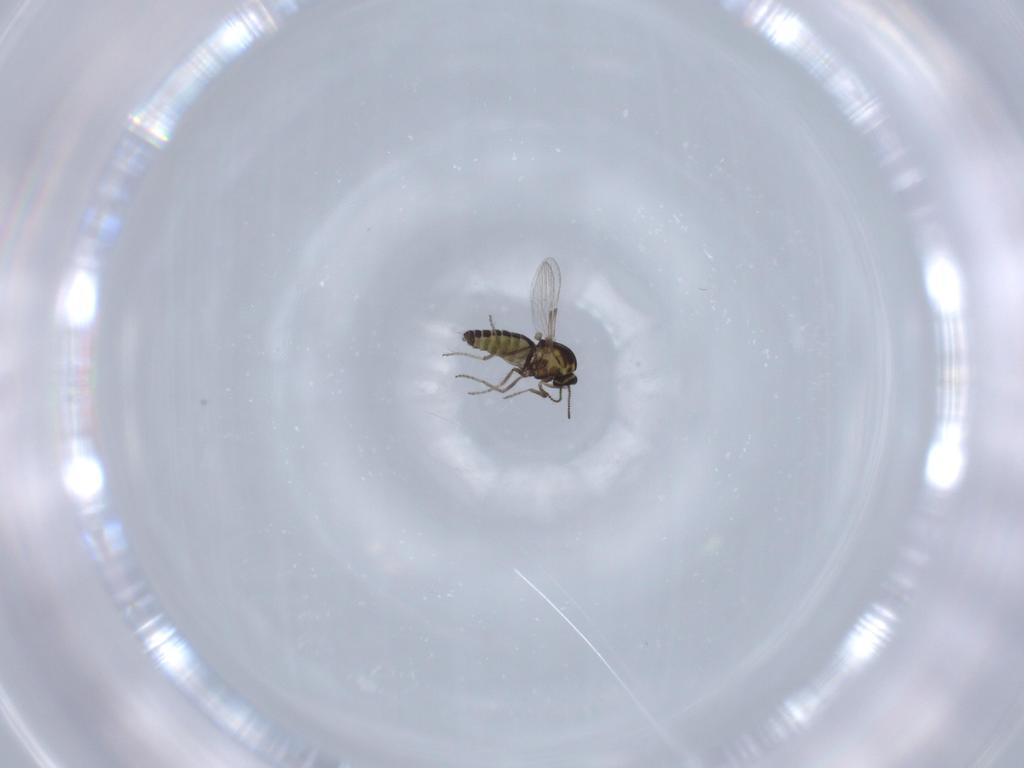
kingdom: Animalia
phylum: Arthropoda
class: Insecta
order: Diptera
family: Ceratopogonidae
